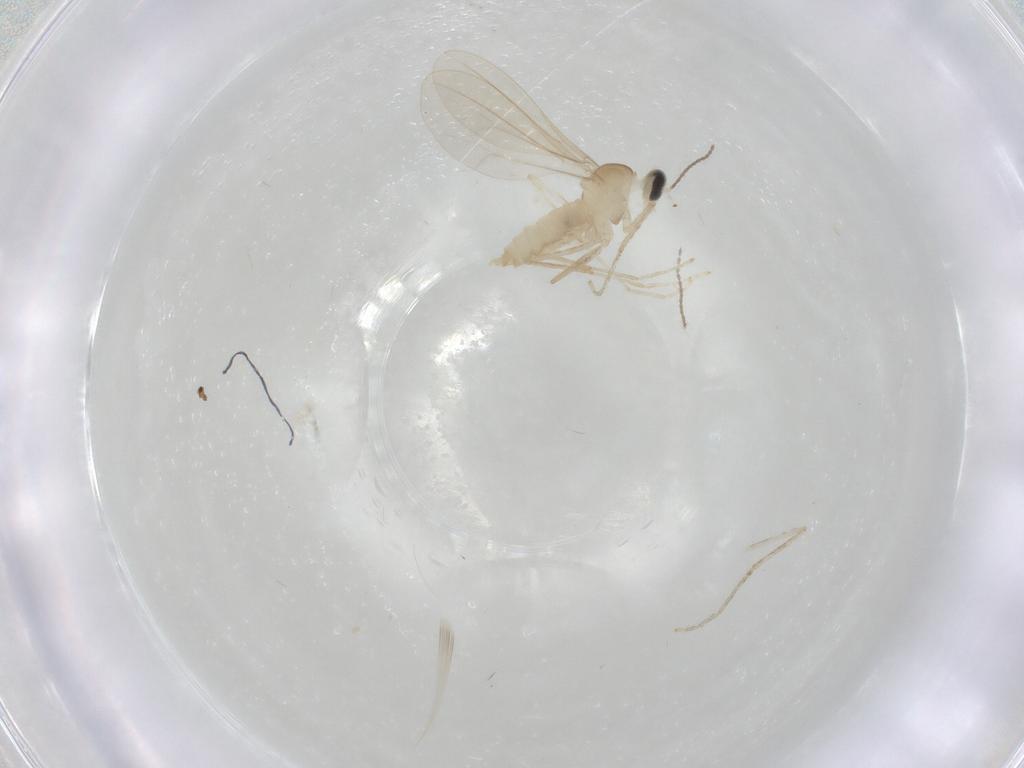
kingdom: Animalia
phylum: Arthropoda
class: Insecta
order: Diptera
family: Cecidomyiidae
